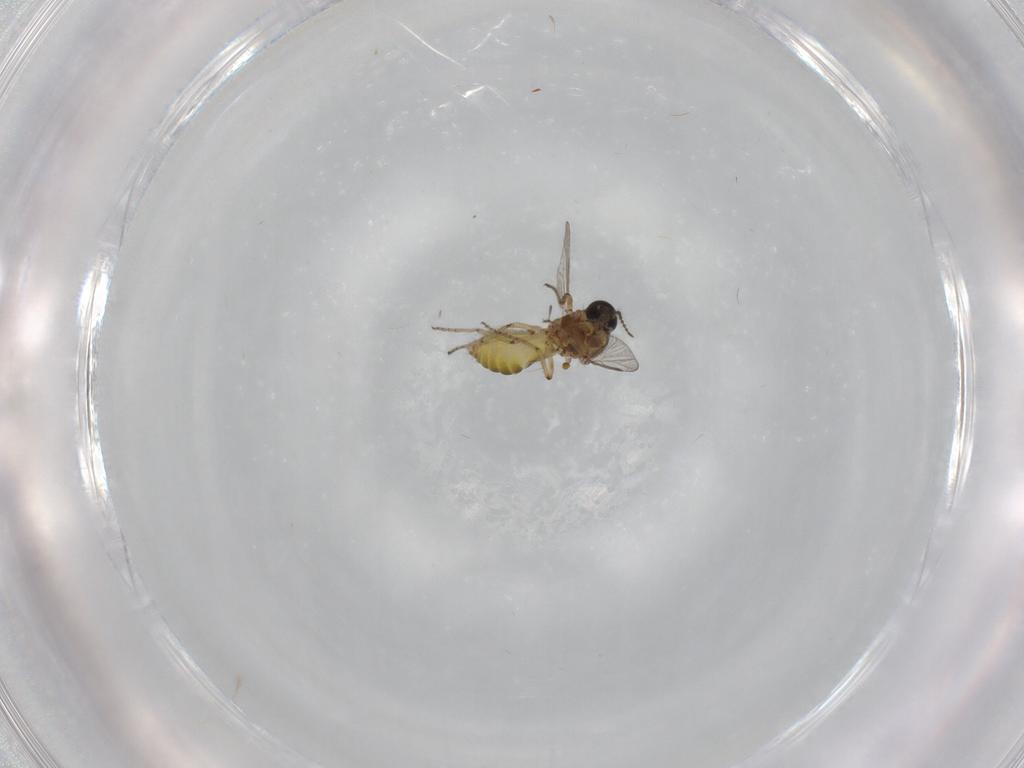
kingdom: Animalia
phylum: Arthropoda
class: Insecta
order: Diptera
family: Ceratopogonidae
